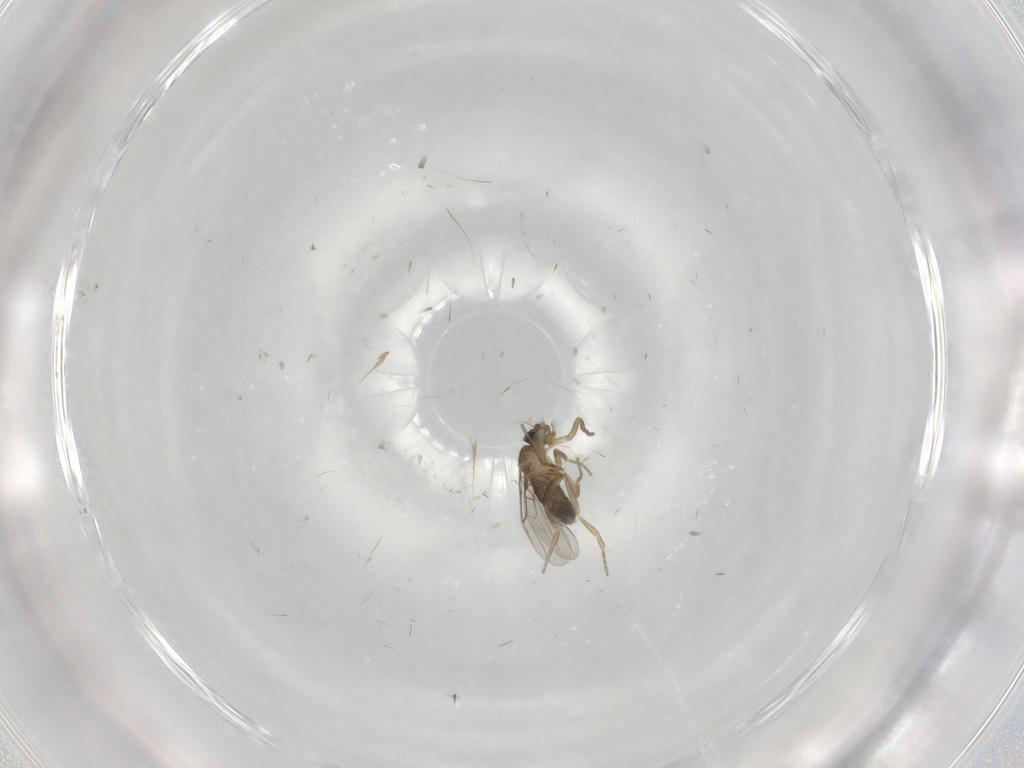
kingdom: Animalia
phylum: Arthropoda
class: Insecta
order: Diptera
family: Phoridae
